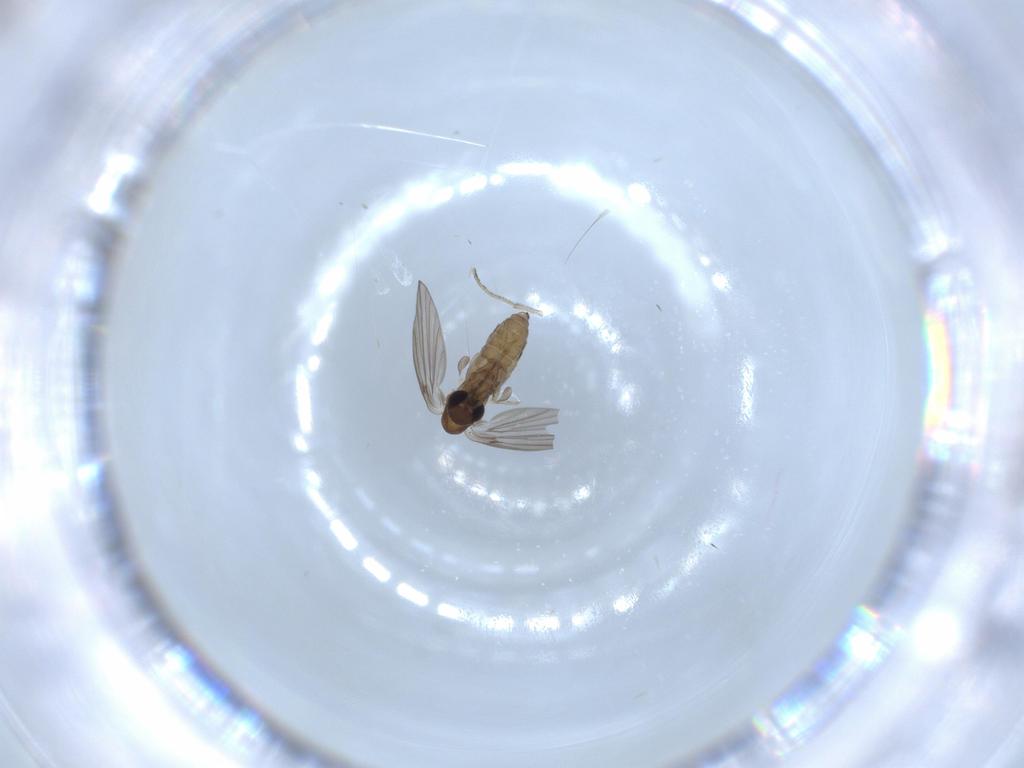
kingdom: Animalia
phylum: Arthropoda
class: Insecta
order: Diptera
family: Psychodidae
